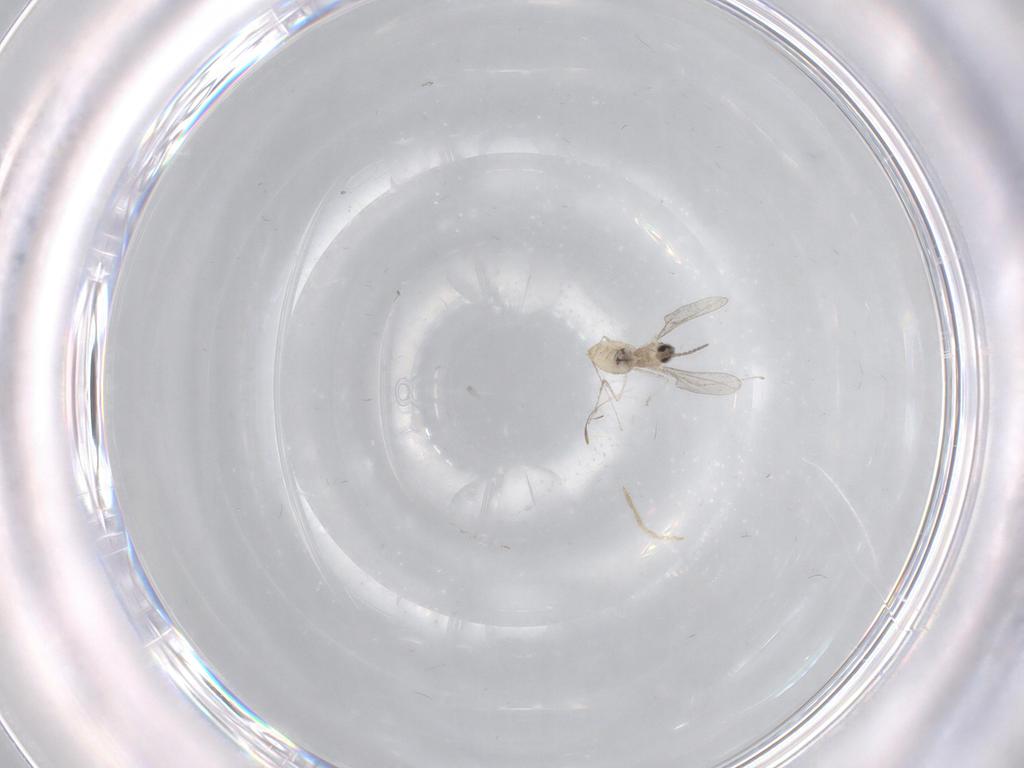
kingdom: Animalia
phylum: Arthropoda
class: Insecta
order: Diptera
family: Cecidomyiidae
